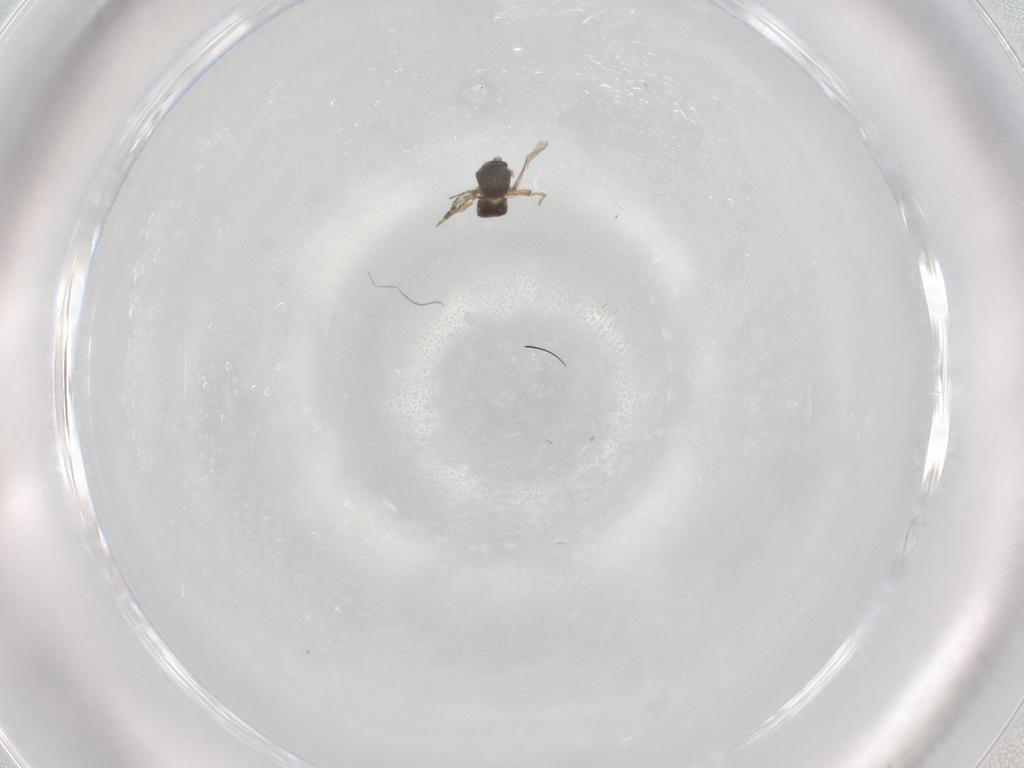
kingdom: Animalia
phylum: Arthropoda
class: Insecta
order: Diptera
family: Ceratopogonidae
